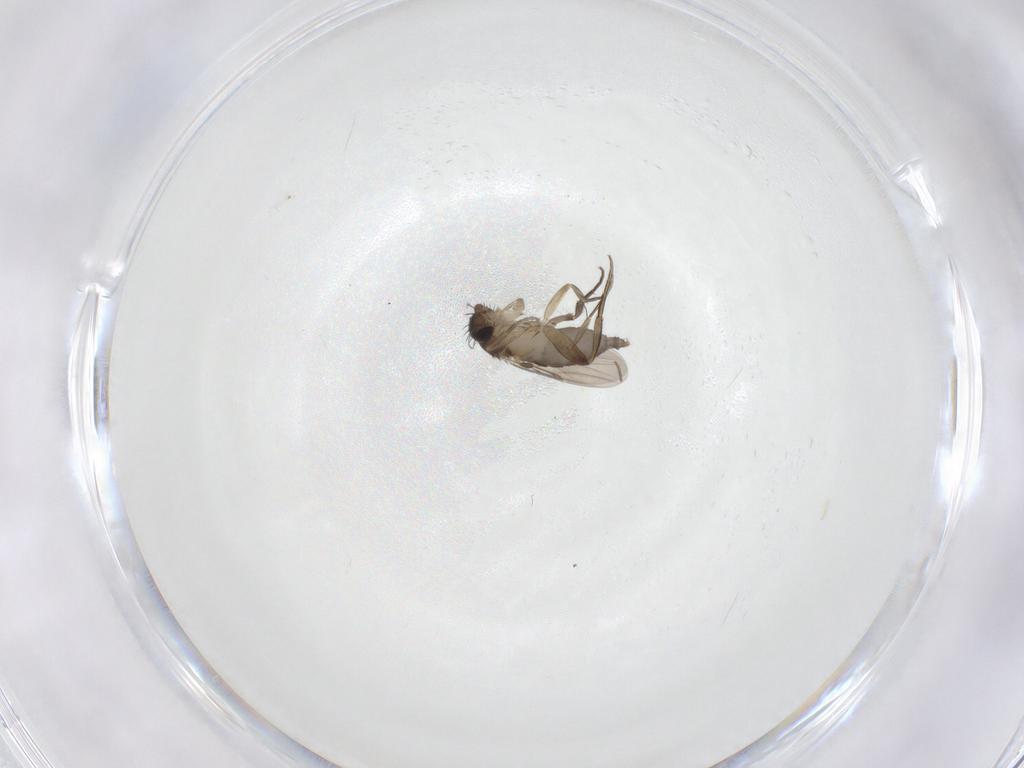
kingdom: Animalia
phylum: Arthropoda
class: Insecta
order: Diptera
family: Phoridae
